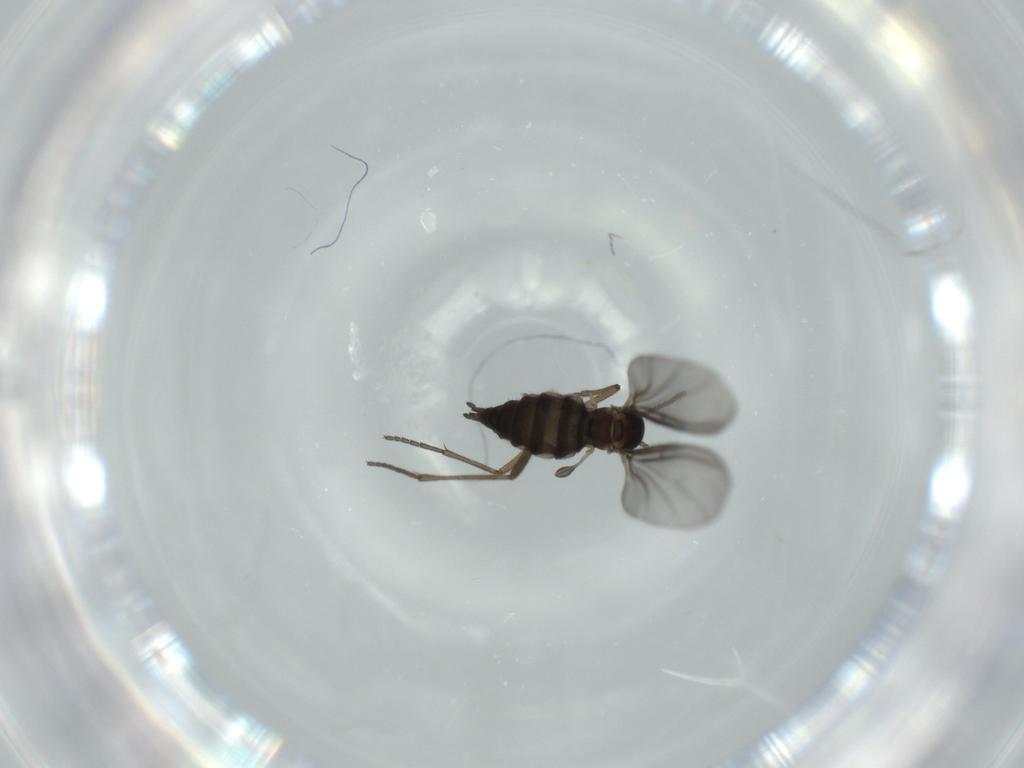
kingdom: Animalia
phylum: Arthropoda
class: Insecta
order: Diptera
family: Sciaridae
